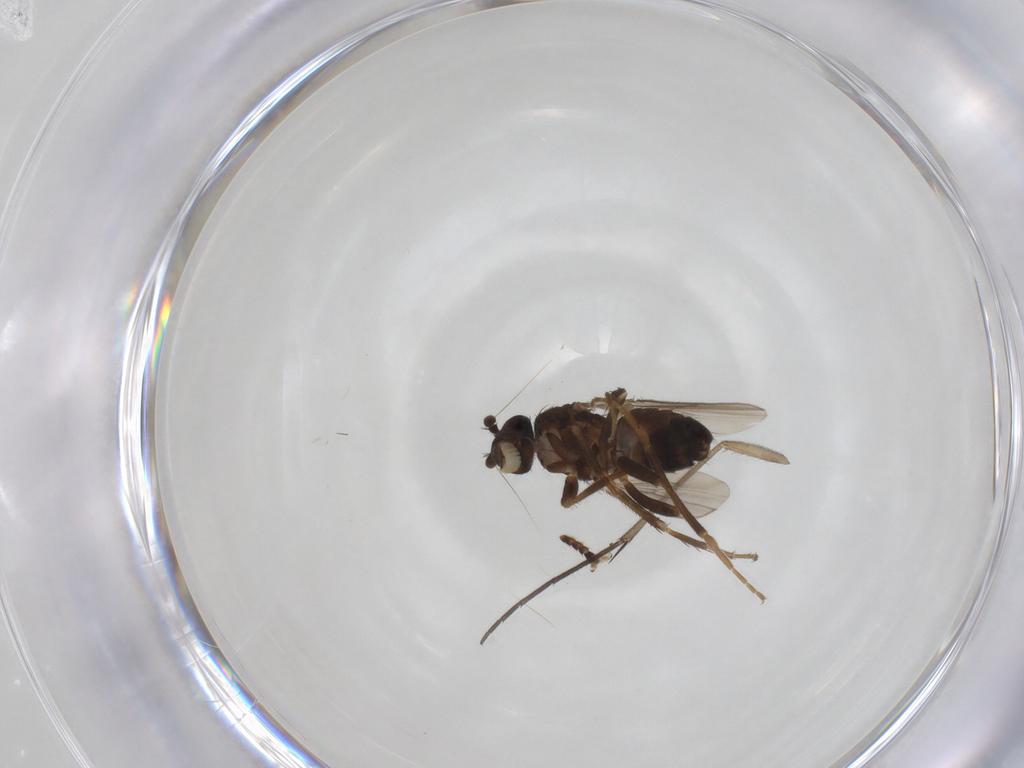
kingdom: Animalia
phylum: Arthropoda
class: Insecta
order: Diptera
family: Sphaeroceridae
